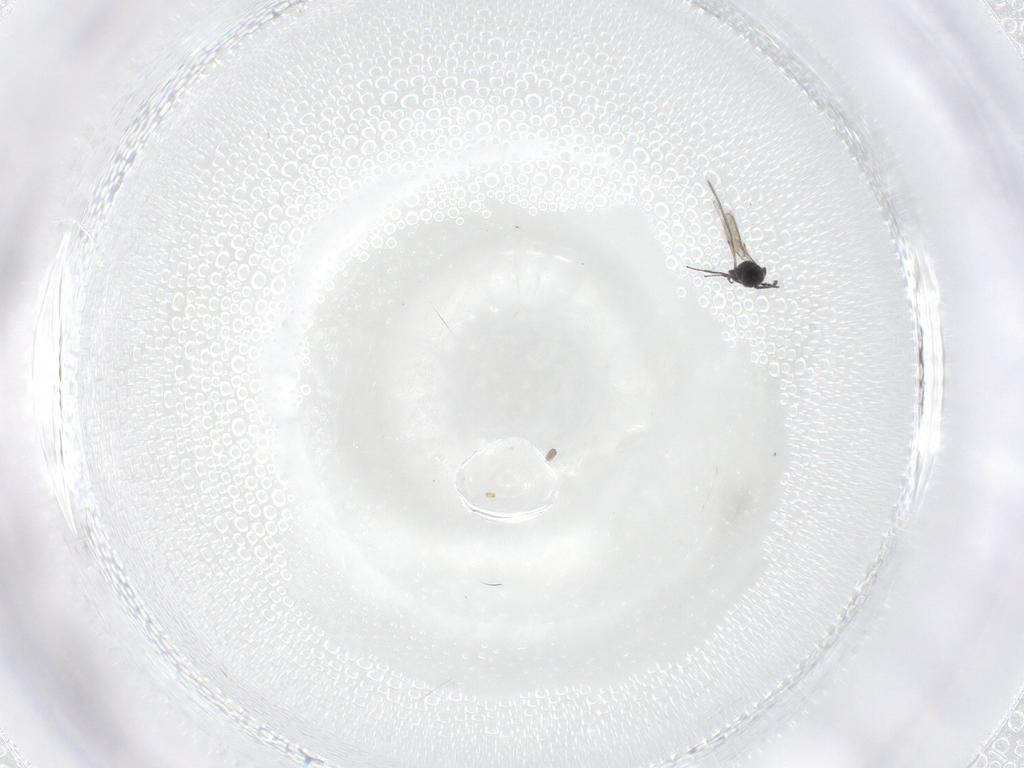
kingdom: Animalia
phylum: Arthropoda
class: Insecta
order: Hymenoptera
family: Scelionidae
